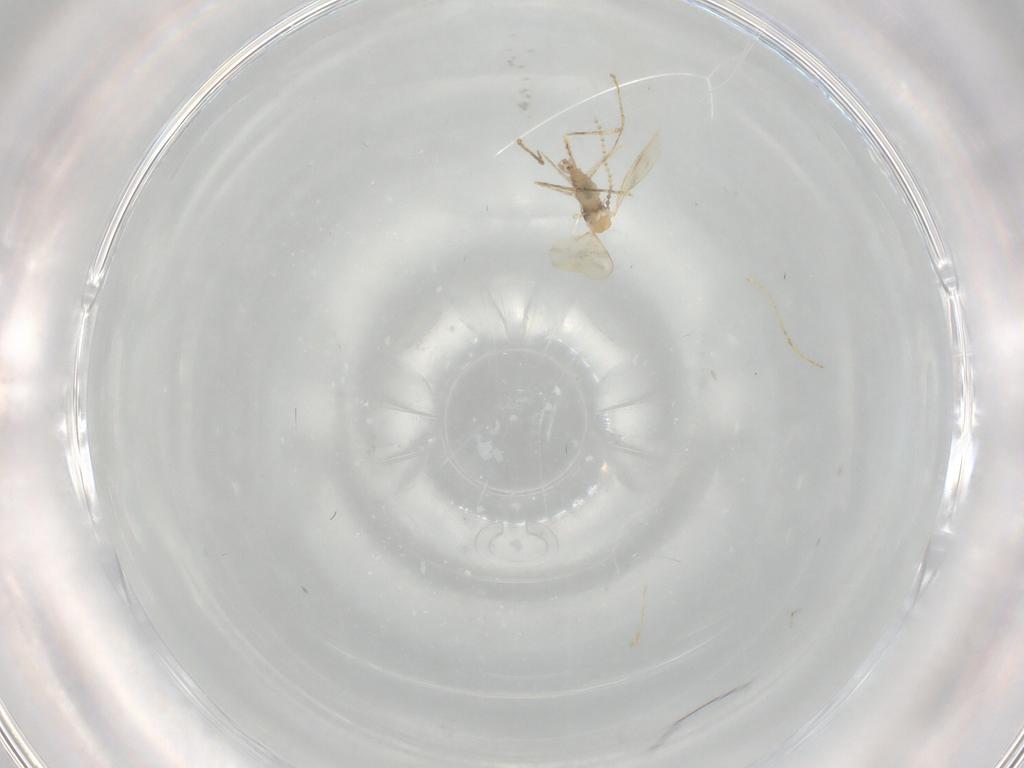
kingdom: Animalia
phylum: Arthropoda
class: Insecta
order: Diptera
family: Cecidomyiidae
